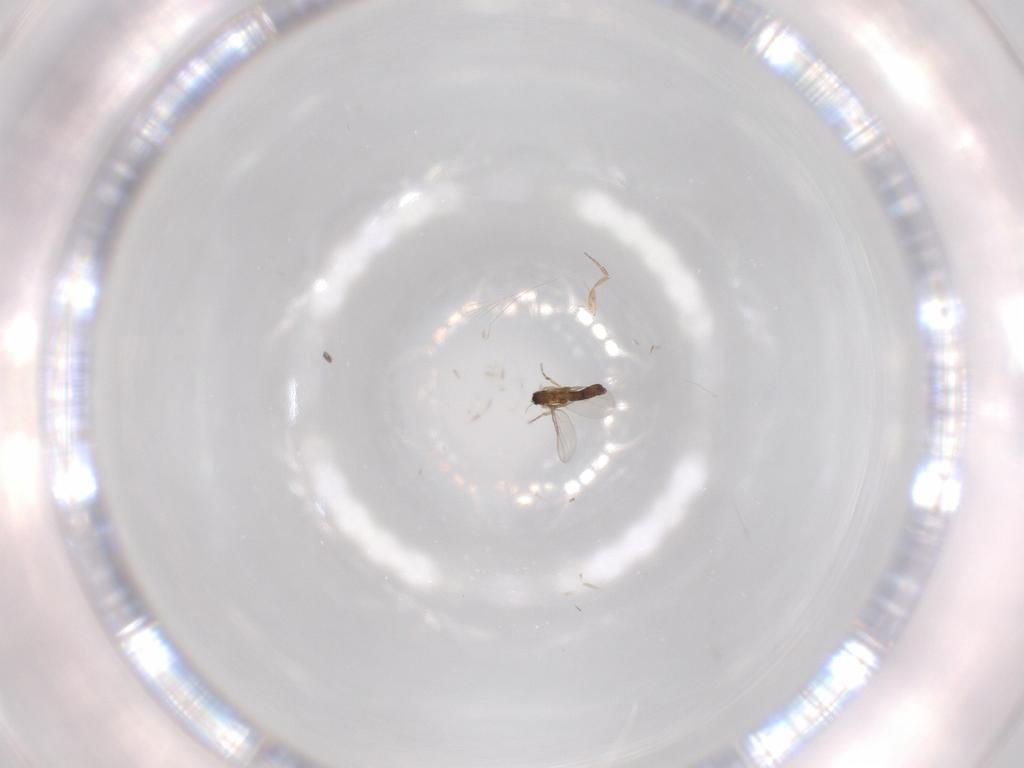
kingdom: Animalia
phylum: Arthropoda
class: Insecta
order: Diptera
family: Phoridae
